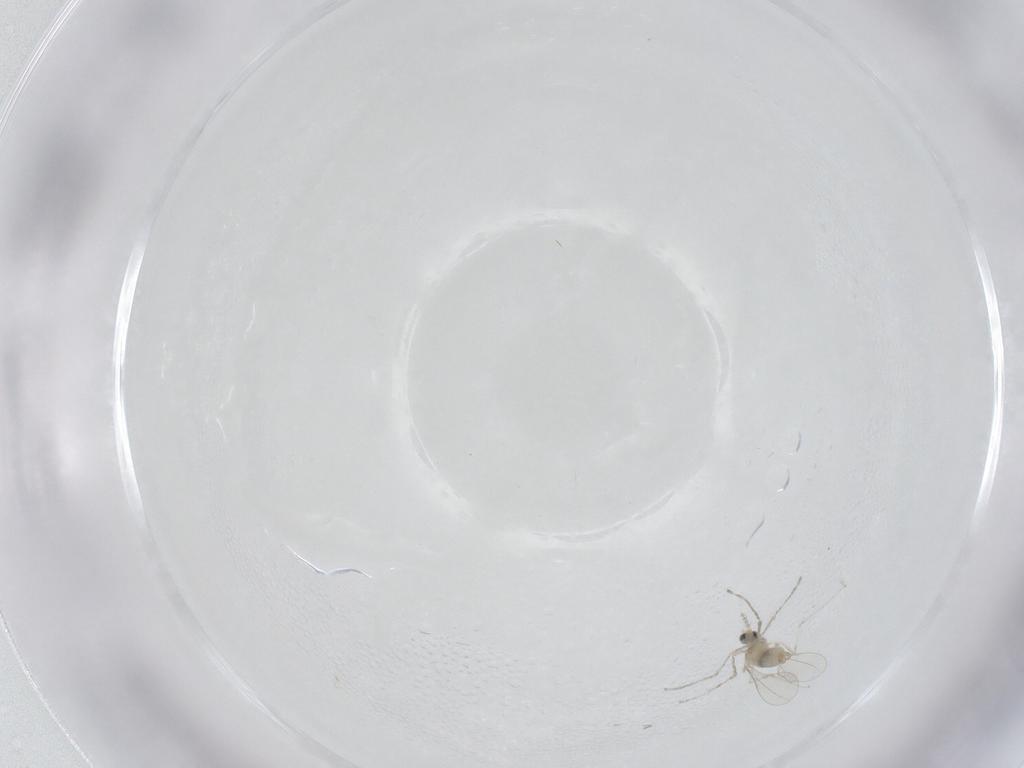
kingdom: Animalia
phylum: Arthropoda
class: Insecta
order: Diptera
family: Cecidomyiidae
